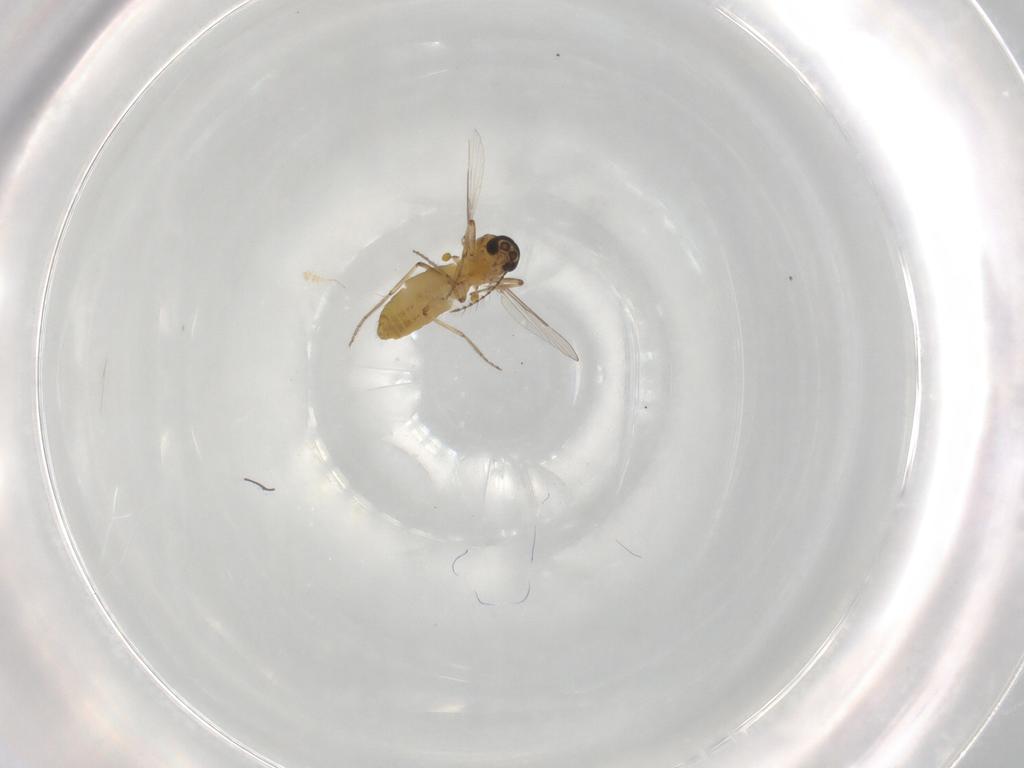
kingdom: Animalia
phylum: Arthropoda
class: Insecta
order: Diptera
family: Ceratopogonidae
